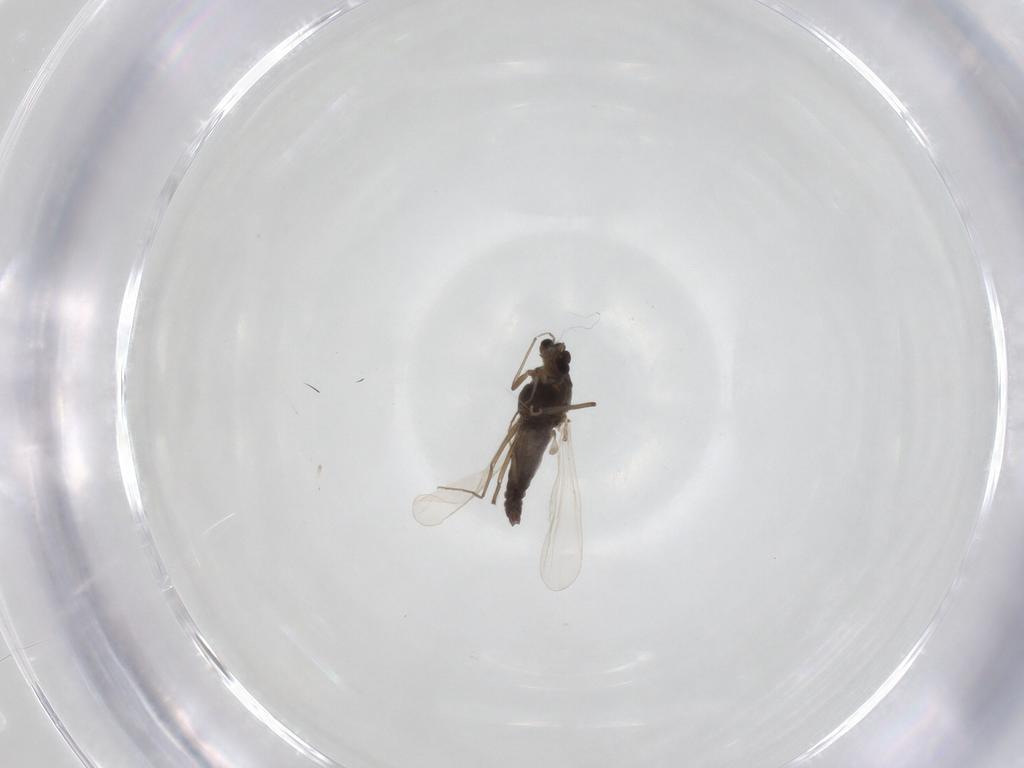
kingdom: Animalia
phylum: Arthropoda
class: Insecta
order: Diptera
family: Chironomidae
